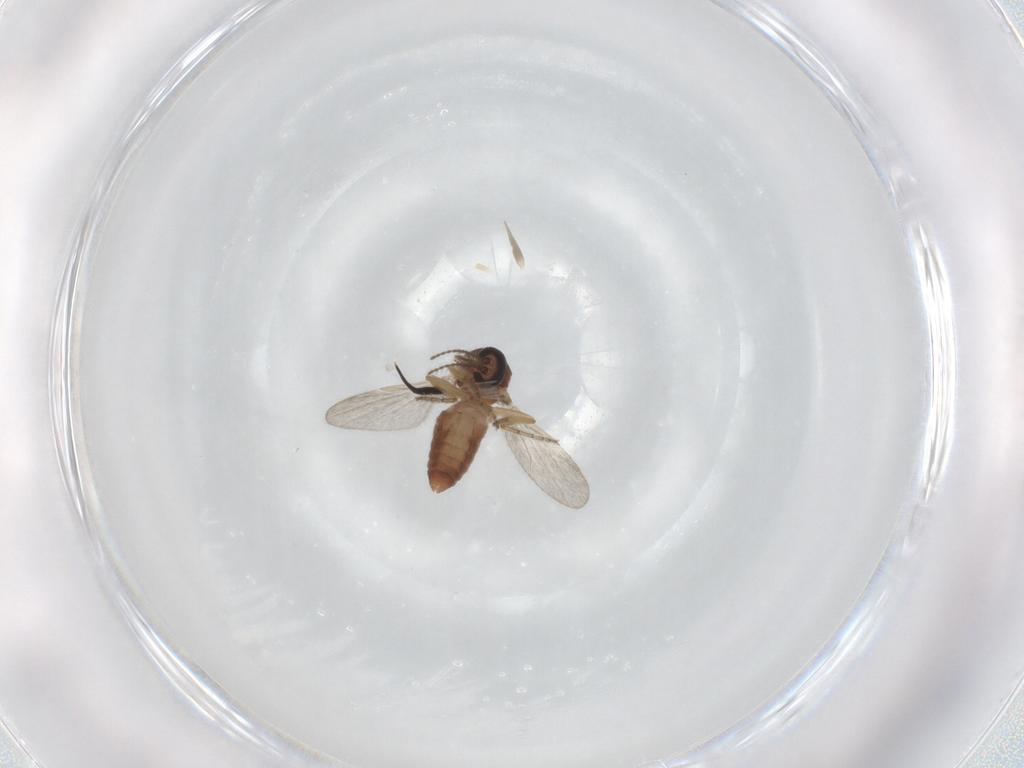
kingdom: Animalia
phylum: Arthropoda
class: Insecta
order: Diptera
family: Ceratopogonidae
